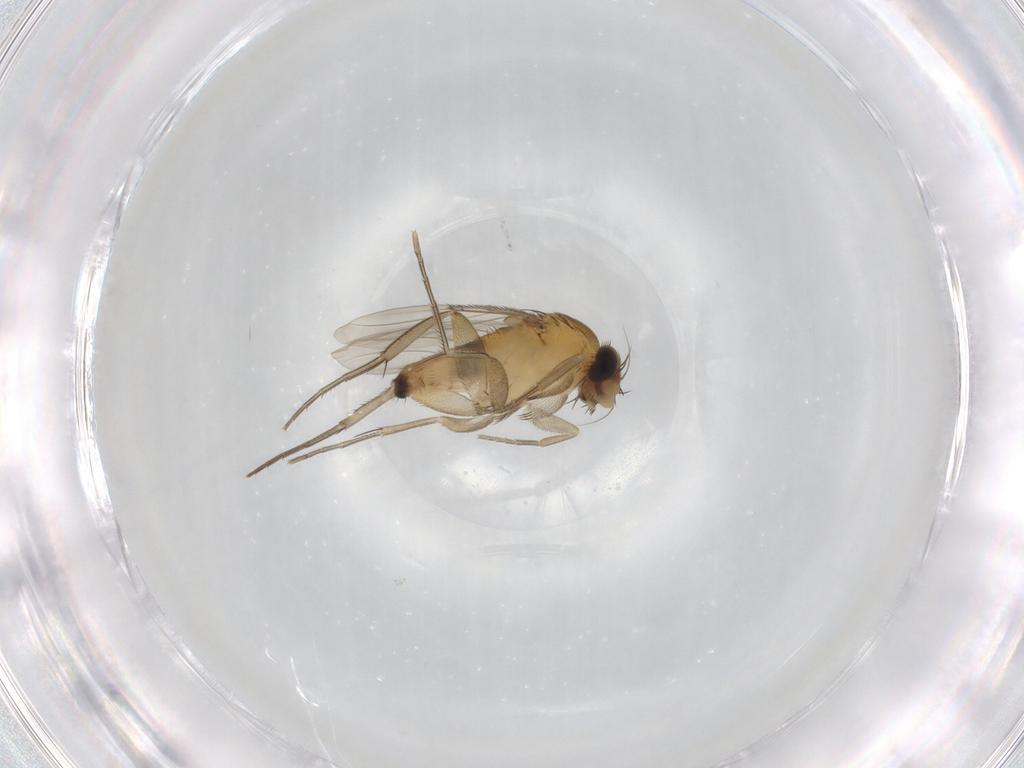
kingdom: Animalia
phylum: Arthropoda
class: Insecta
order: Diptera
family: Phoridae
